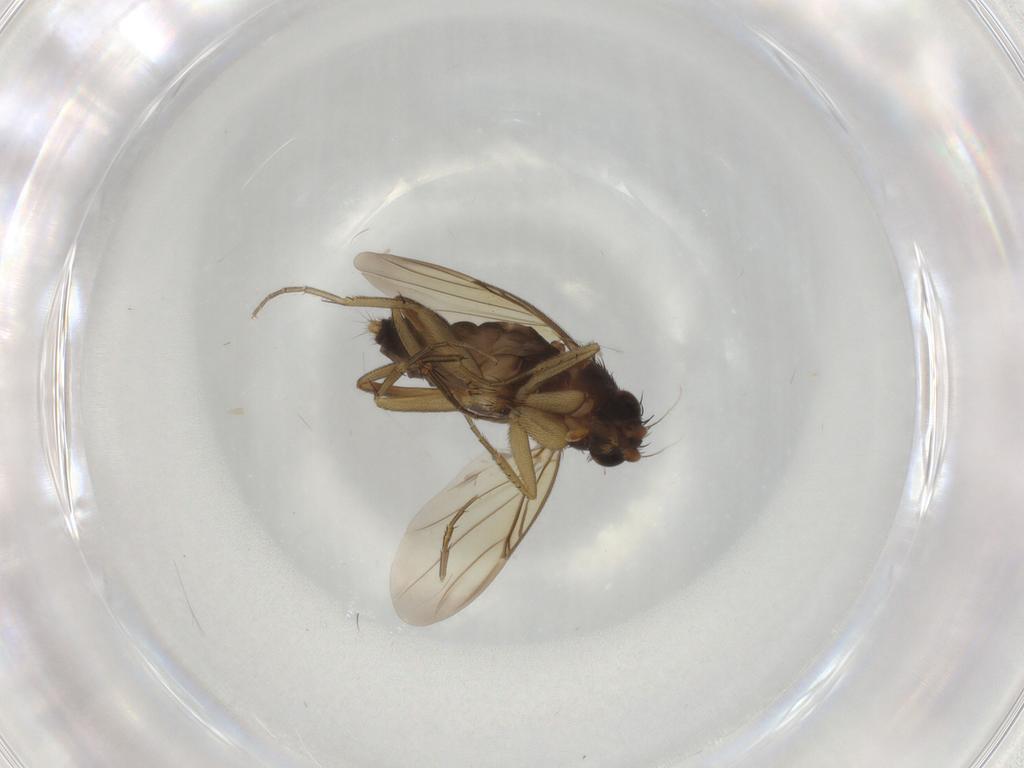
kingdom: Animalia
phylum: Arthropoda
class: Insecta
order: Diptera
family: Phoridae
